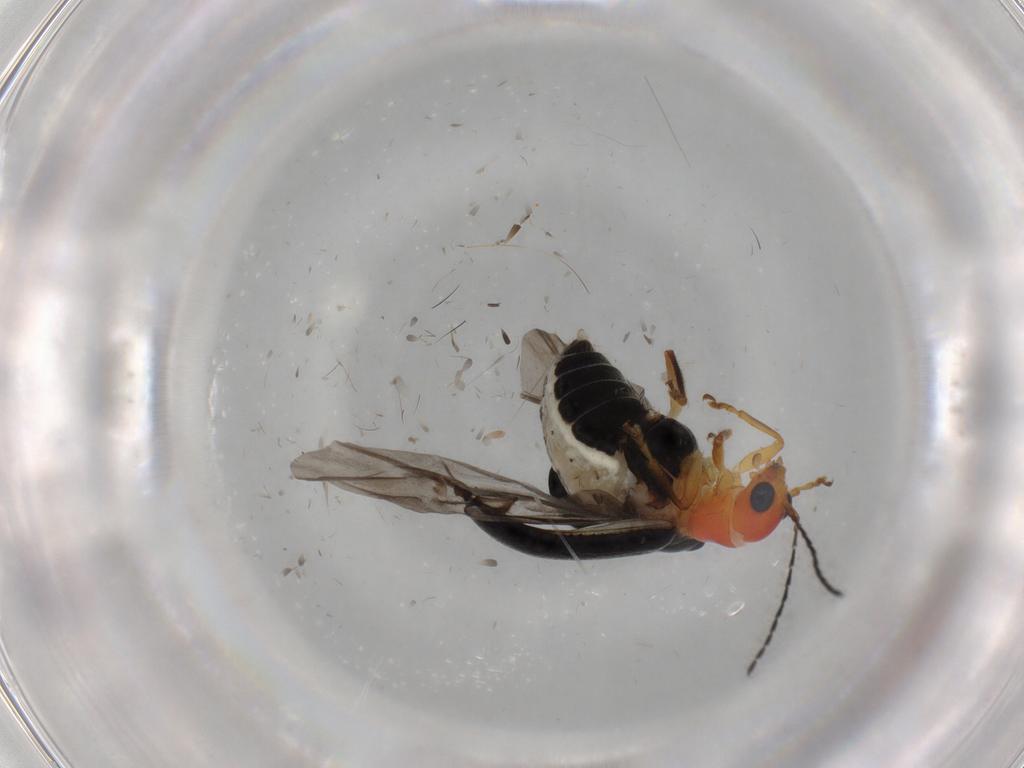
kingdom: Animalia
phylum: Arthropoda
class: Insecta
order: Coleoptera
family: Chrysomelidae
